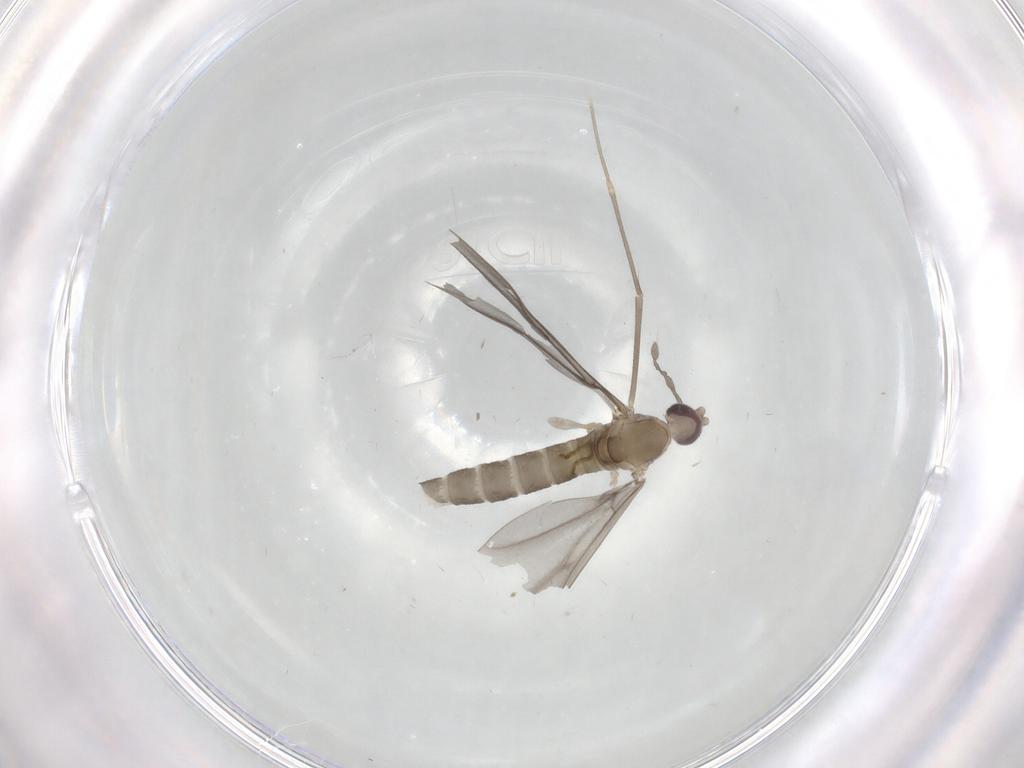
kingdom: Animalia
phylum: Arthropoda
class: Insecta
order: Diptera
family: Cecidomyiidae
